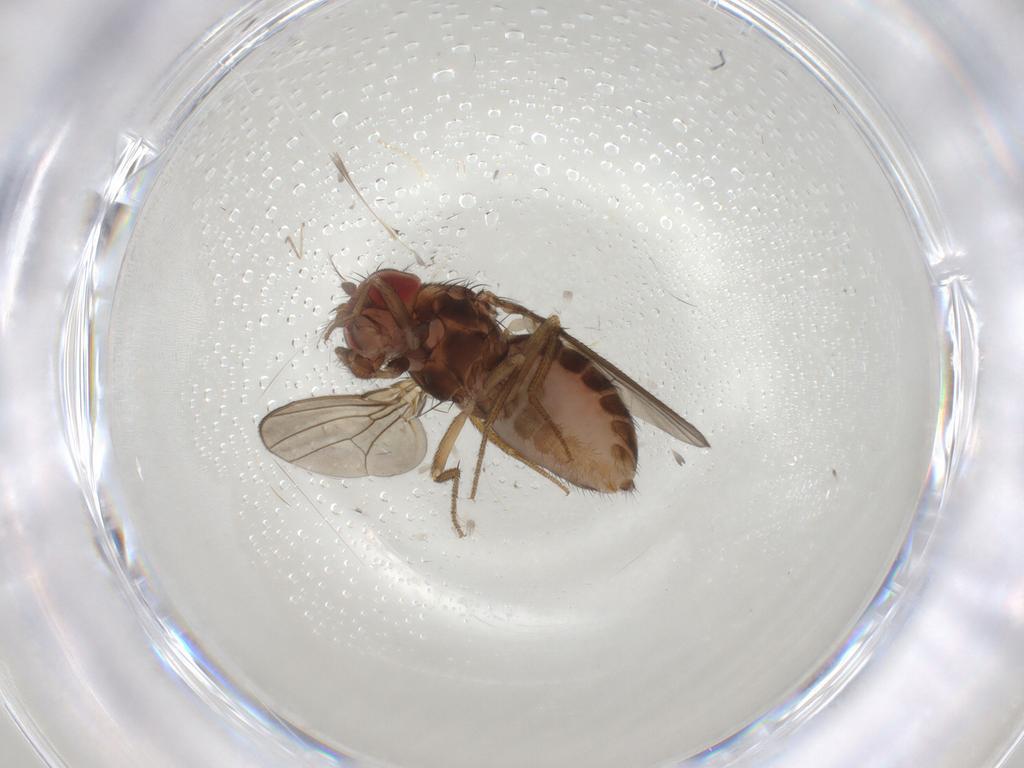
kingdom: Animalia
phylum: Arthropoda
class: Insecta
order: Diptera
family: Drosophilidae
